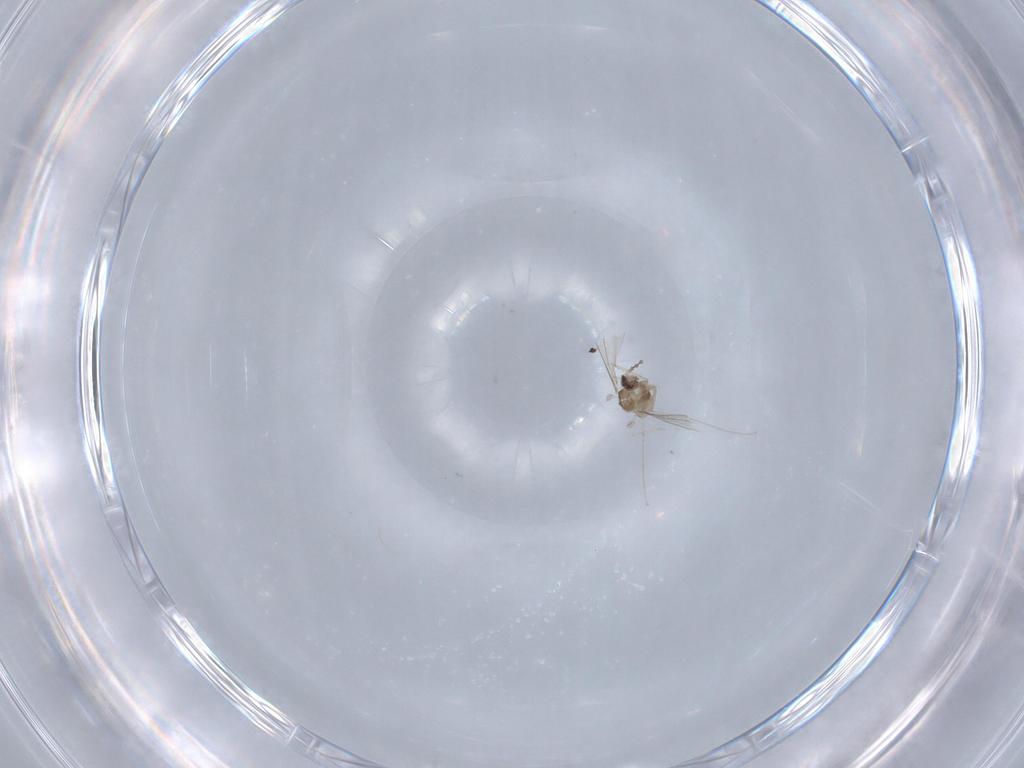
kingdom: Animalia
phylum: Arthropoda
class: Insecta
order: Diptera
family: Cecidomyiidae
